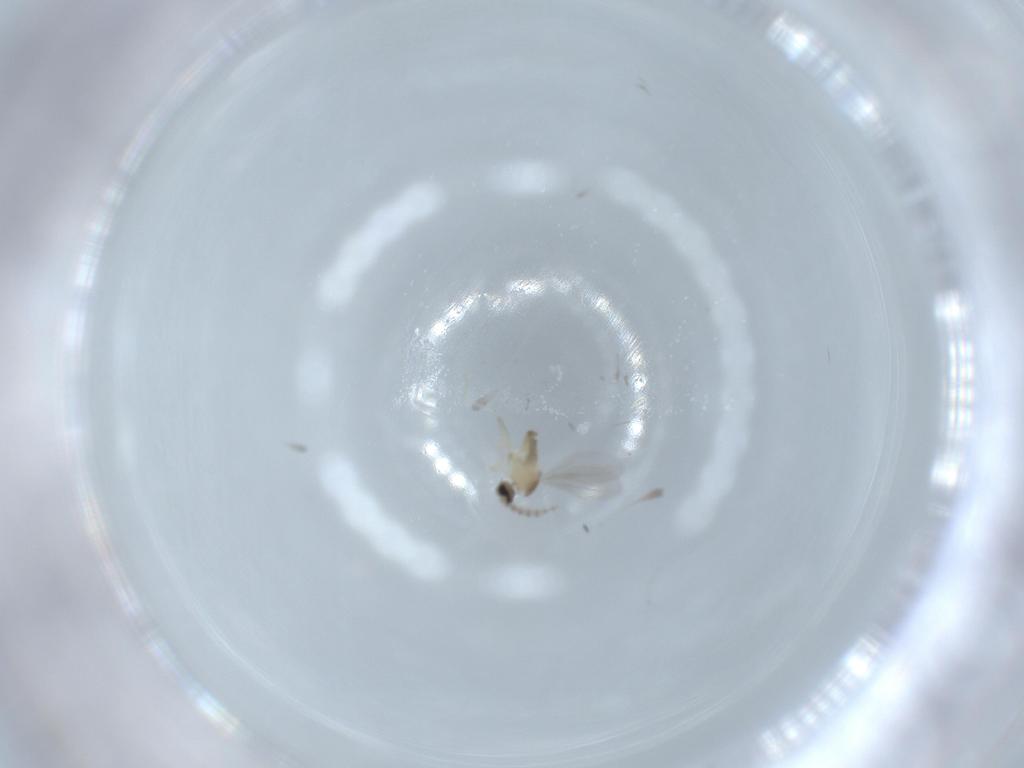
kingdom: Animalia
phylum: Arthropoda
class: Insecta
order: Diptera
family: Cecidomyiidae
